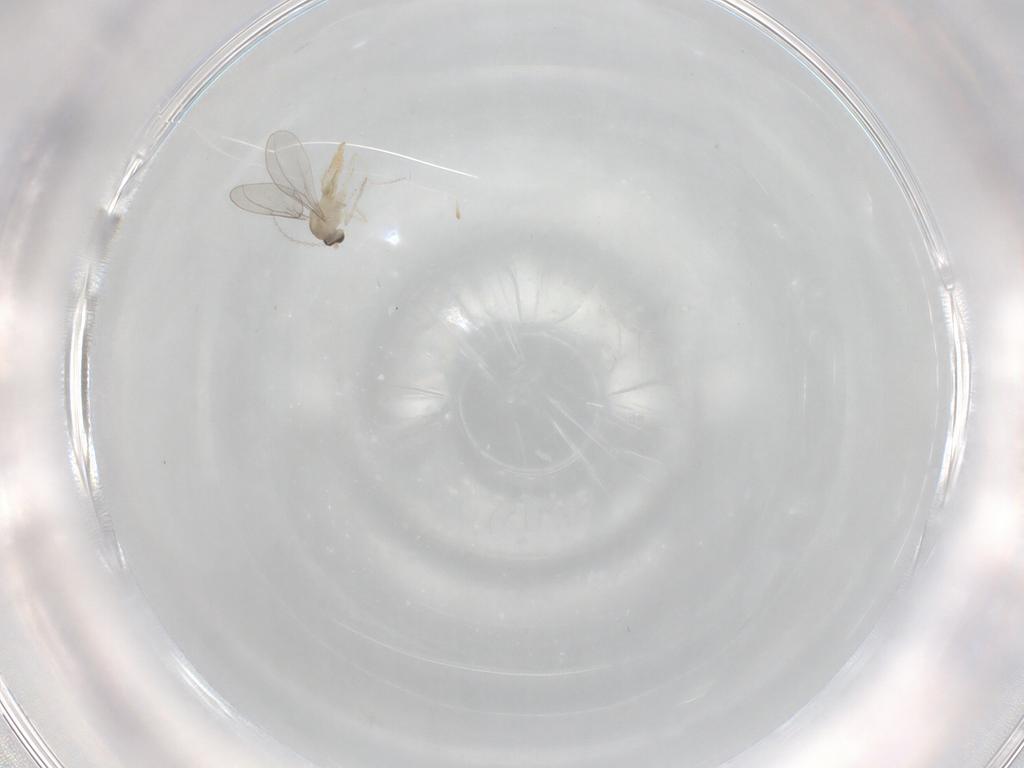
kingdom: Animalia
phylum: Arthropoda
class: Insecta
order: Diptera
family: Cecidomyiidae
